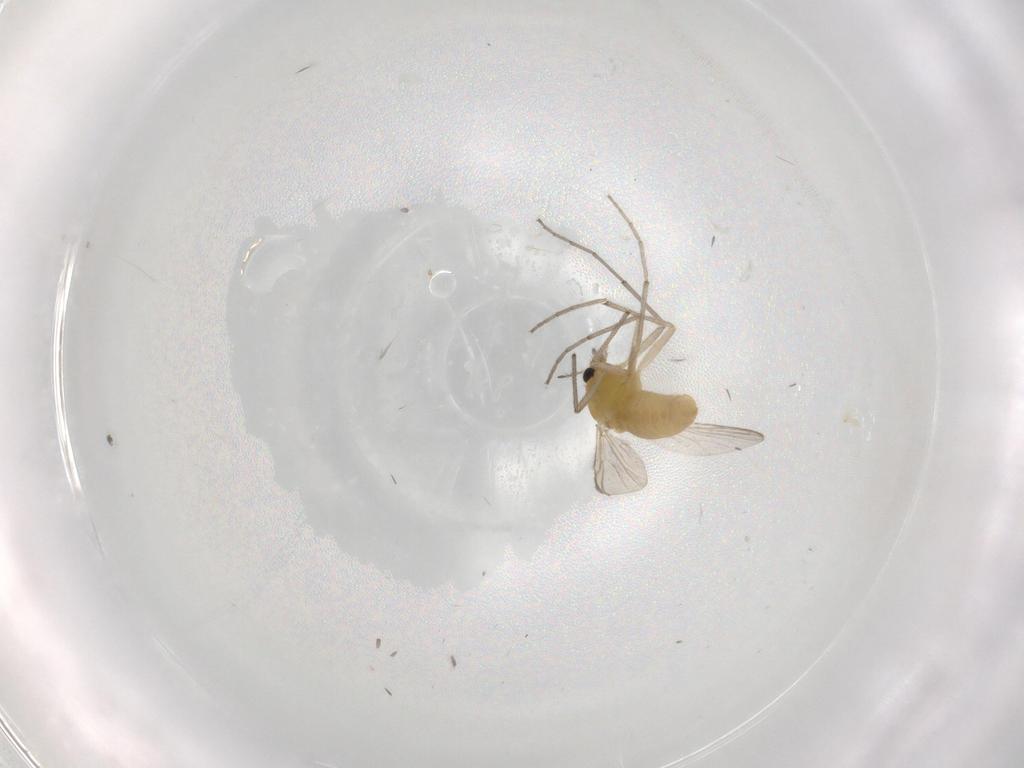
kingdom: Animalia
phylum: Arthropoda
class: Insecta
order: Diptera
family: Chironomidae
